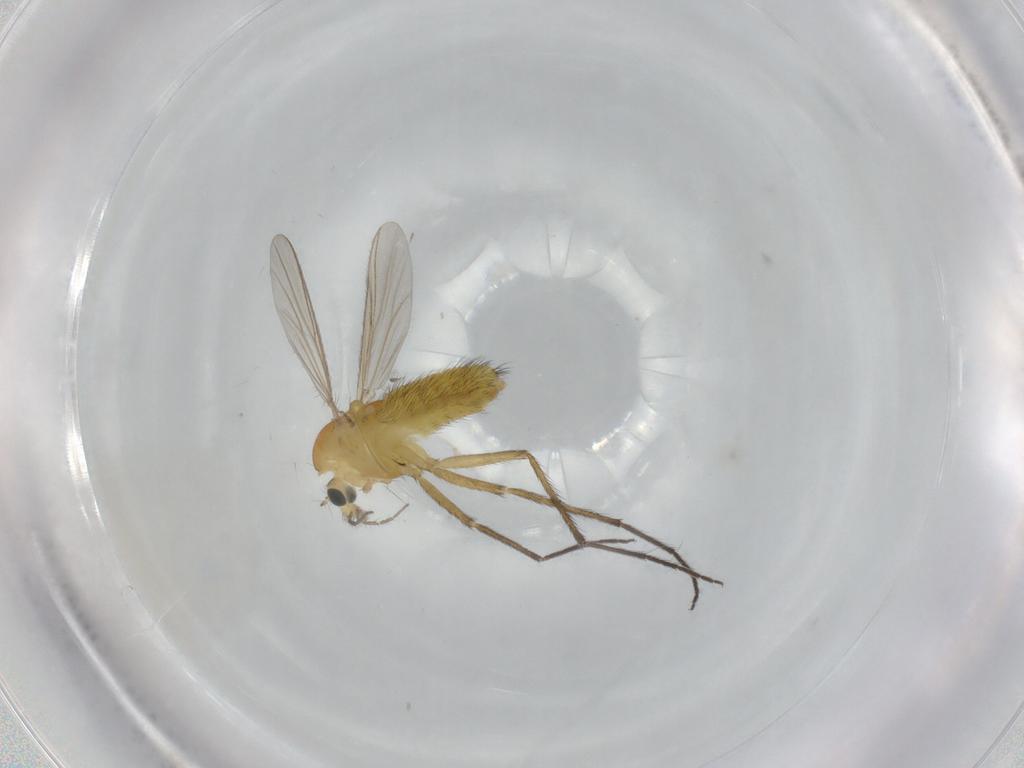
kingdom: Animalia
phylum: Arthropoda
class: Insecta
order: Diptera
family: Chironomidae
